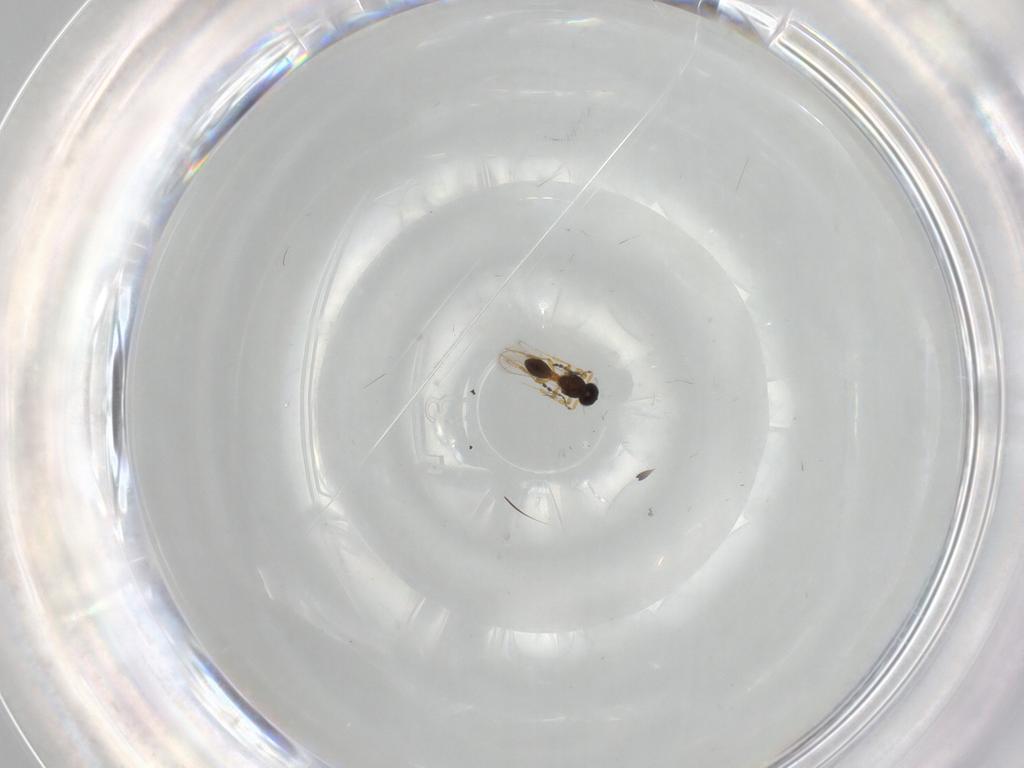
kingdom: Animalia
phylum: Arthropoda
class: Insecta
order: Hymenoptera
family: Platygastridae
